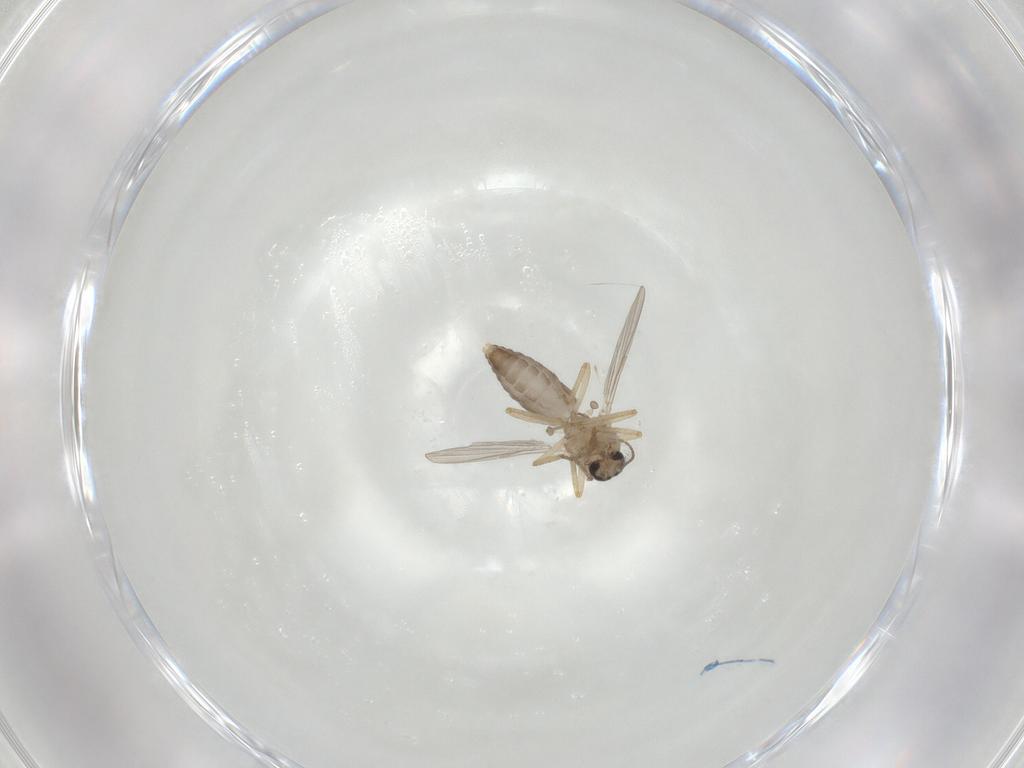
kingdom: Animalia
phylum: Arthropoda
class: Insecta
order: Diptera
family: Ceratopogonidae
